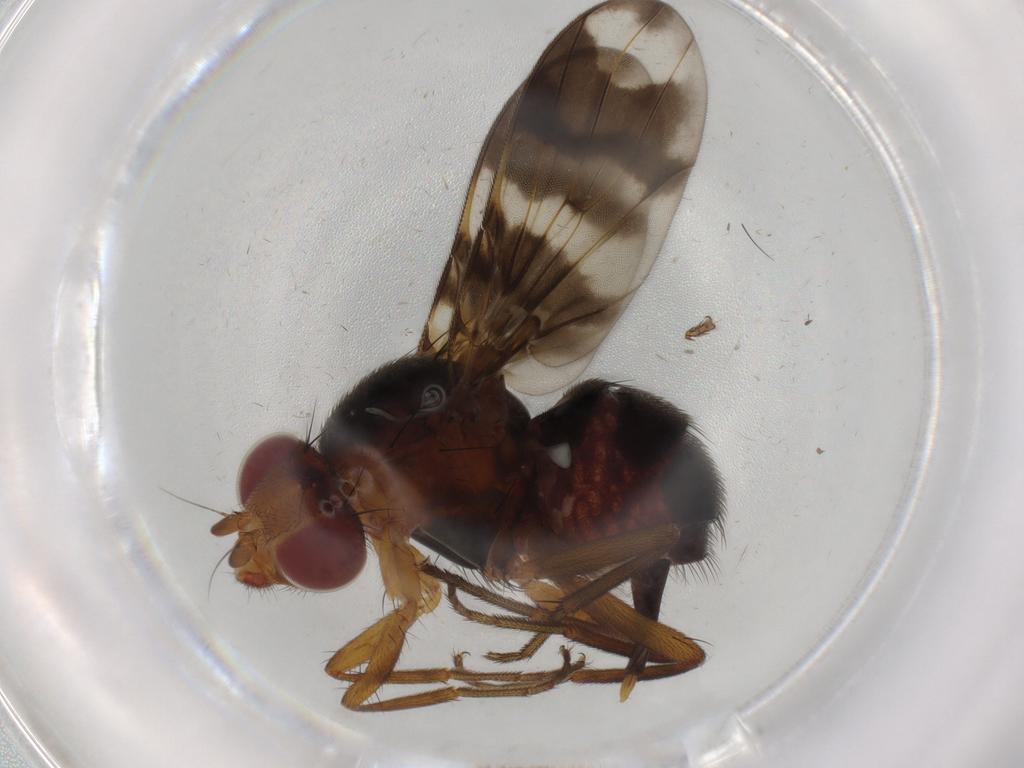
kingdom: Animalia
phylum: Arthropoda
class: Insecta
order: Diptera
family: Richardiidae
